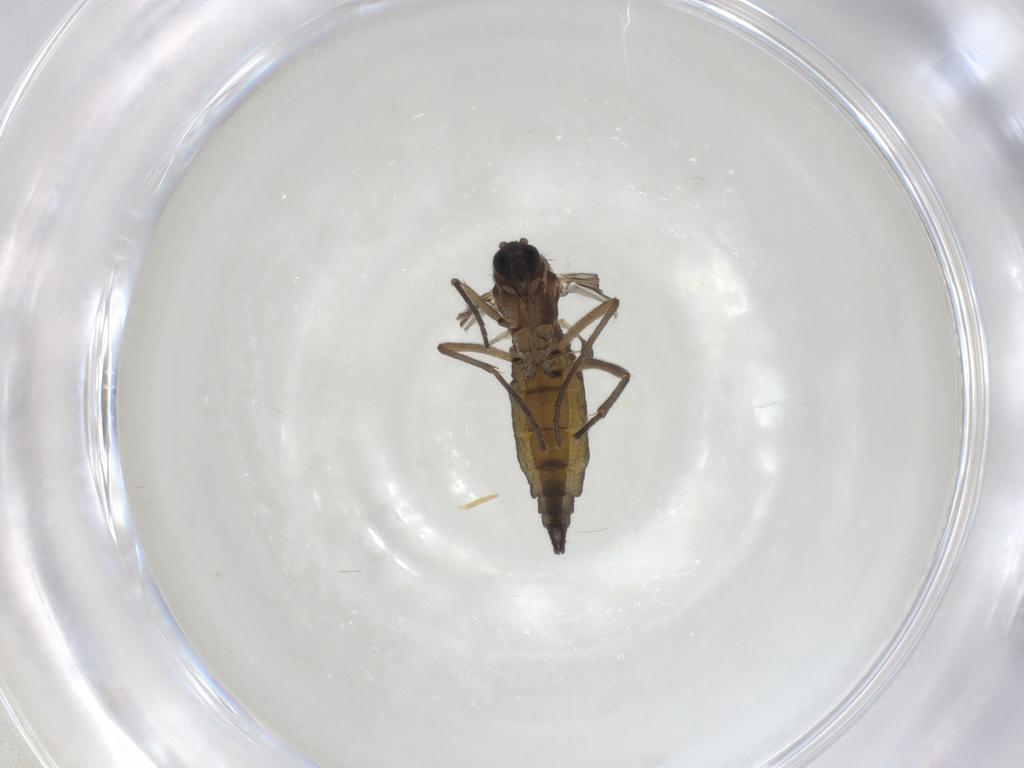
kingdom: Animalia
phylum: Arthropoda
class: Insecta
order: Diptera
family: Sciaridae
